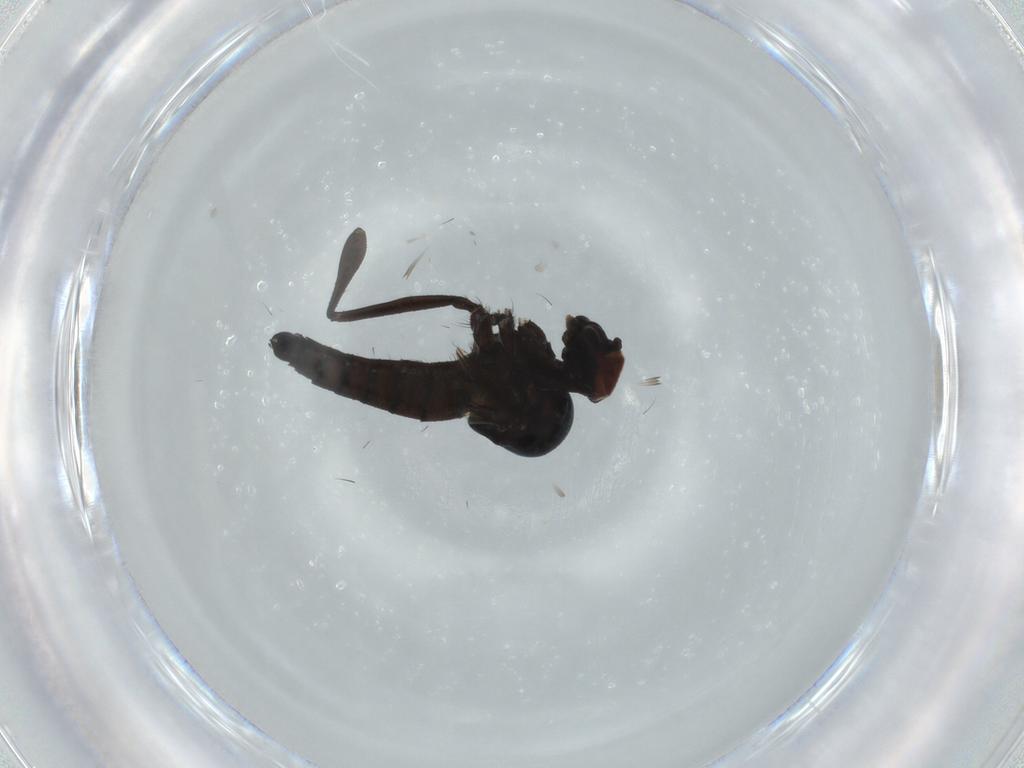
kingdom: Animalia
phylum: Arthropoda
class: Insecta
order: Diptera
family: Hybotidae
